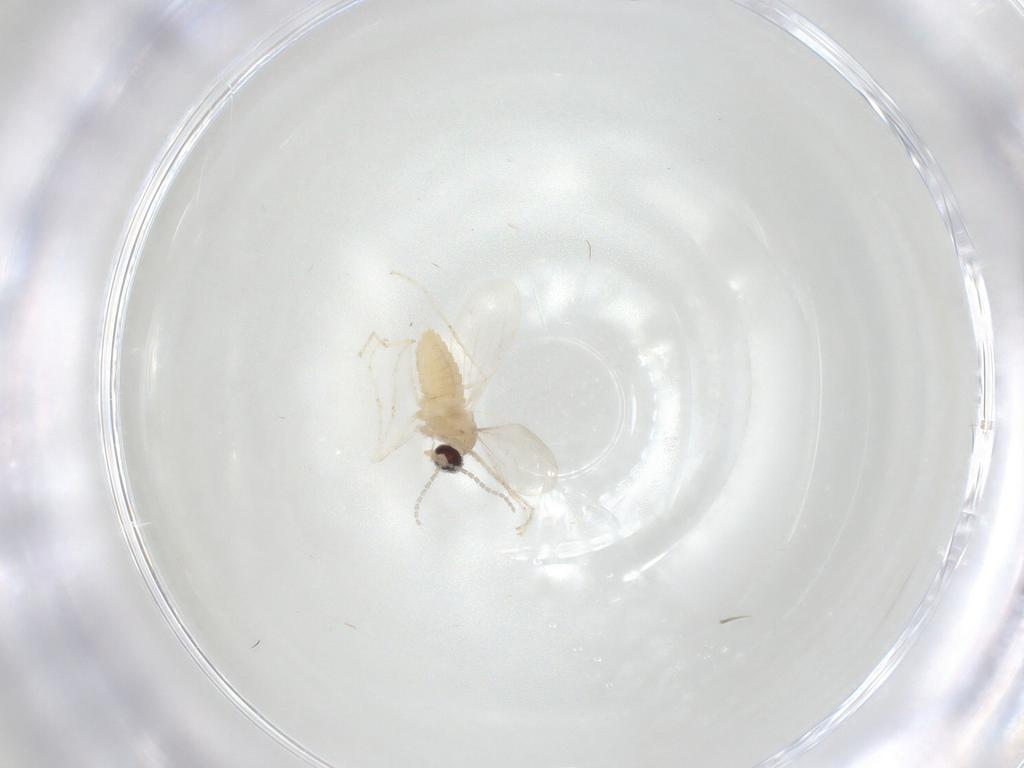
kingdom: Animalia
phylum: Arthropoda
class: Insecta
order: Diptera
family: Cecidomyiidae
